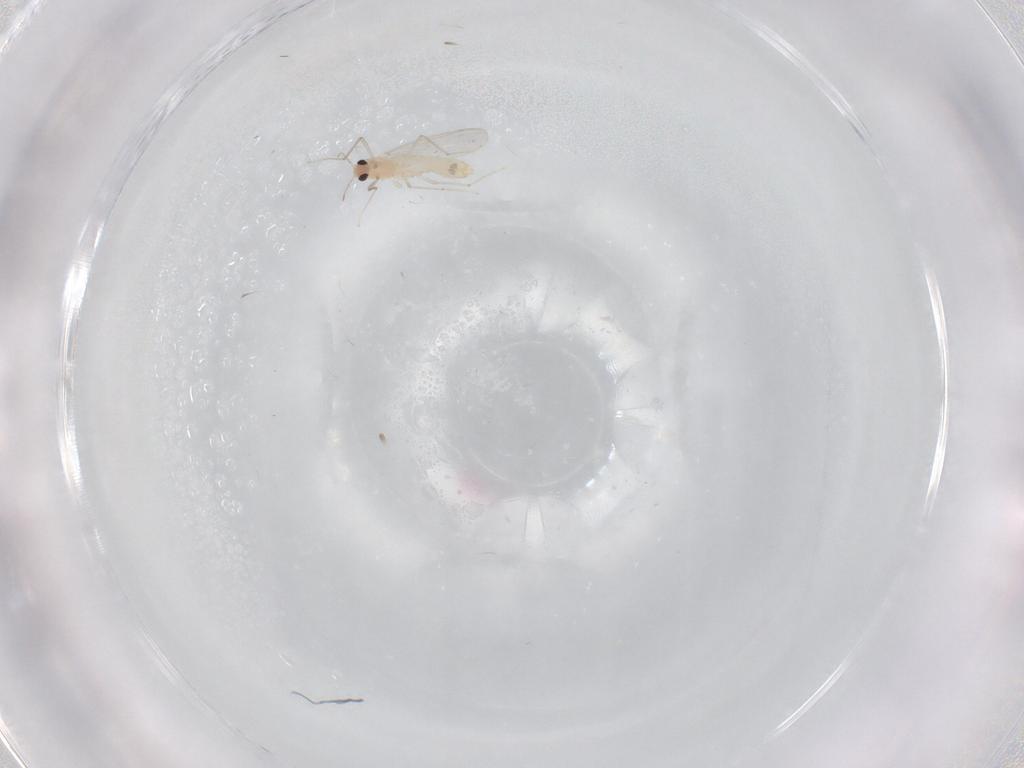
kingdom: Animalia
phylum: Arthropoda
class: Insecta
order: Diptera
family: Chironomidae
